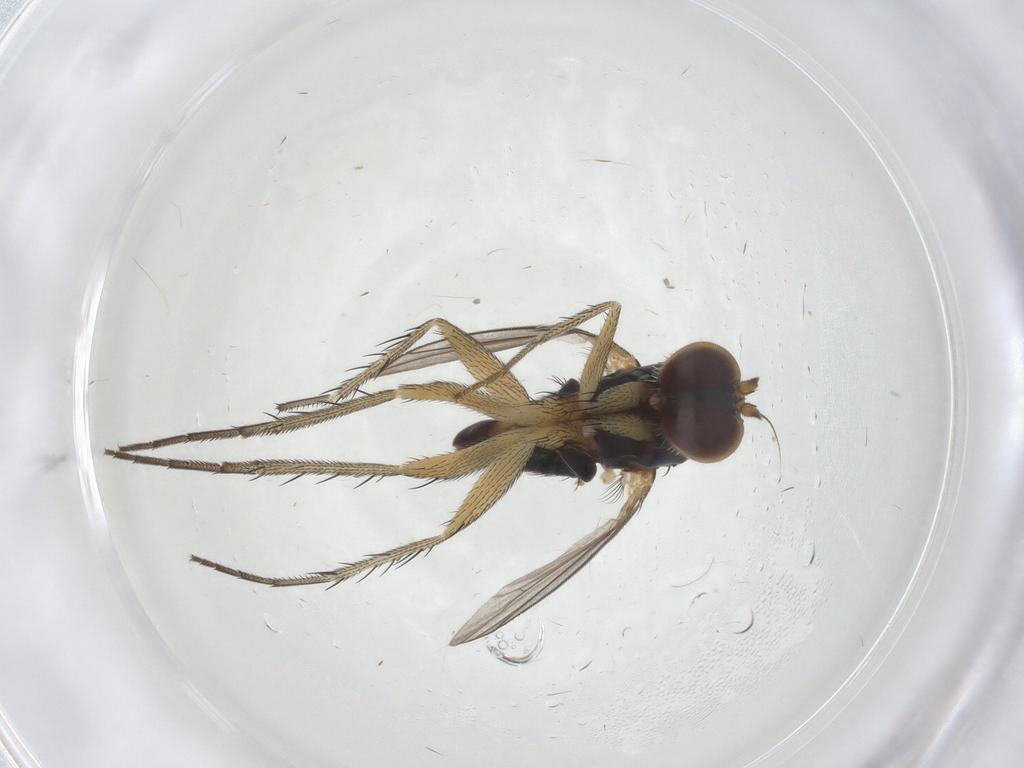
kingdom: Animalia
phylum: Arthropoda
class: Insecta
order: Diptera
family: Dolichopodidae
